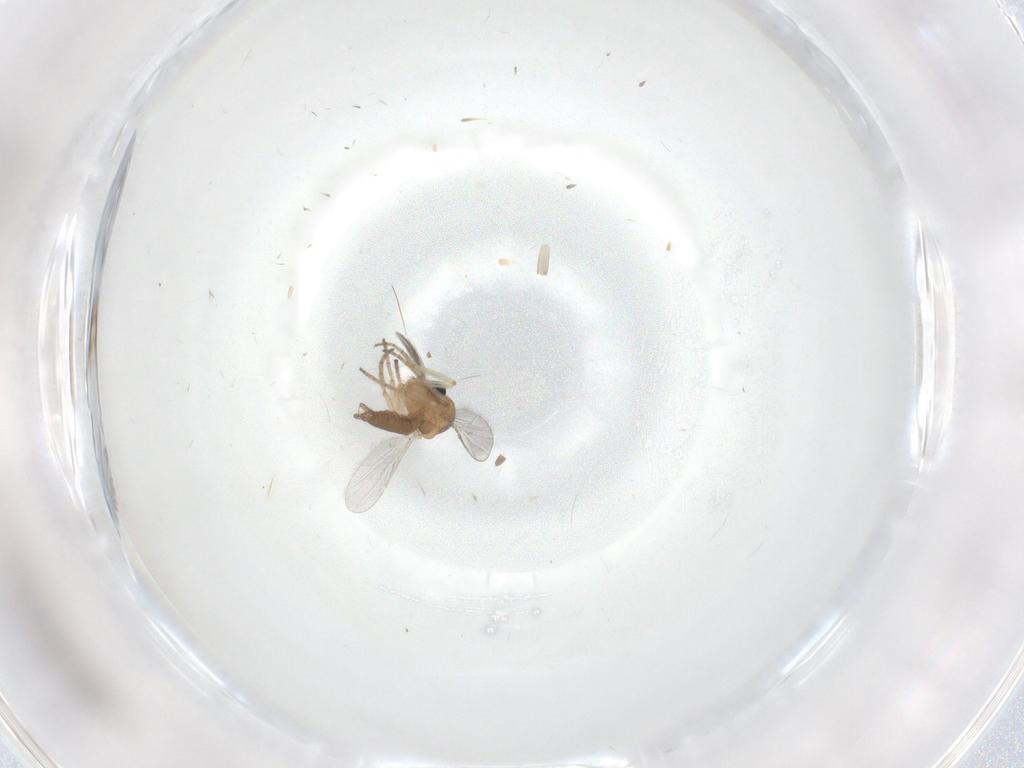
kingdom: Animalia
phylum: Arthropoda
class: Insecta
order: Diptera
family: Ceratopogonidae
